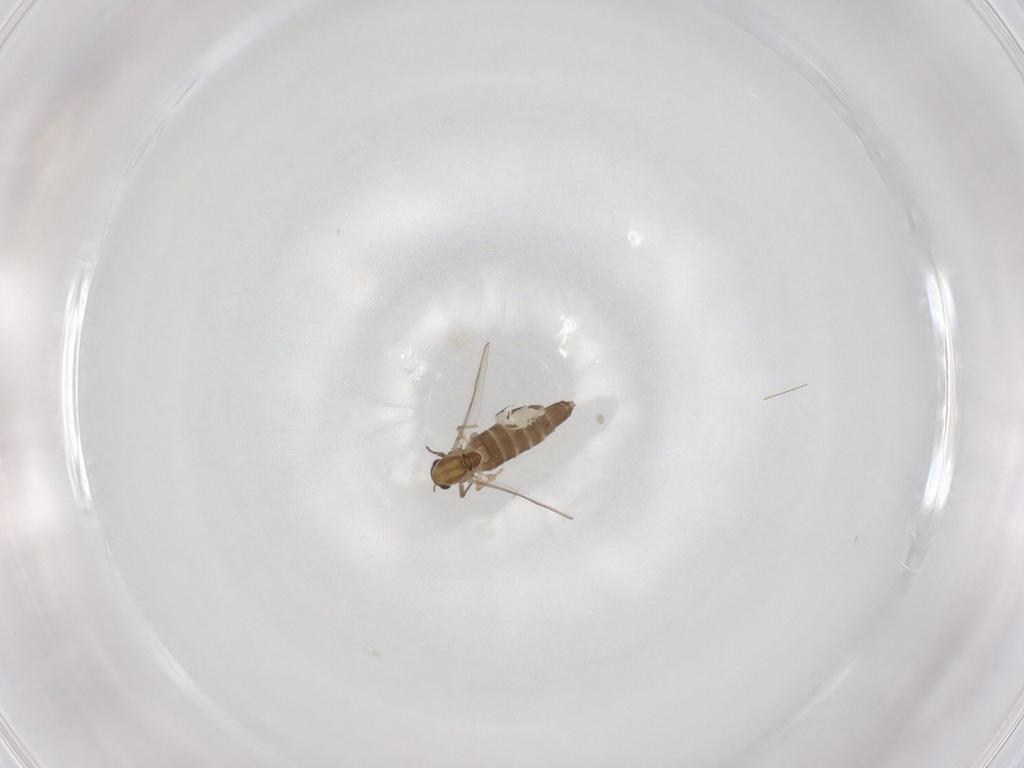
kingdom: Animalia
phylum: Arthropoda
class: Insecta
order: Diptera
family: Chironomidae
